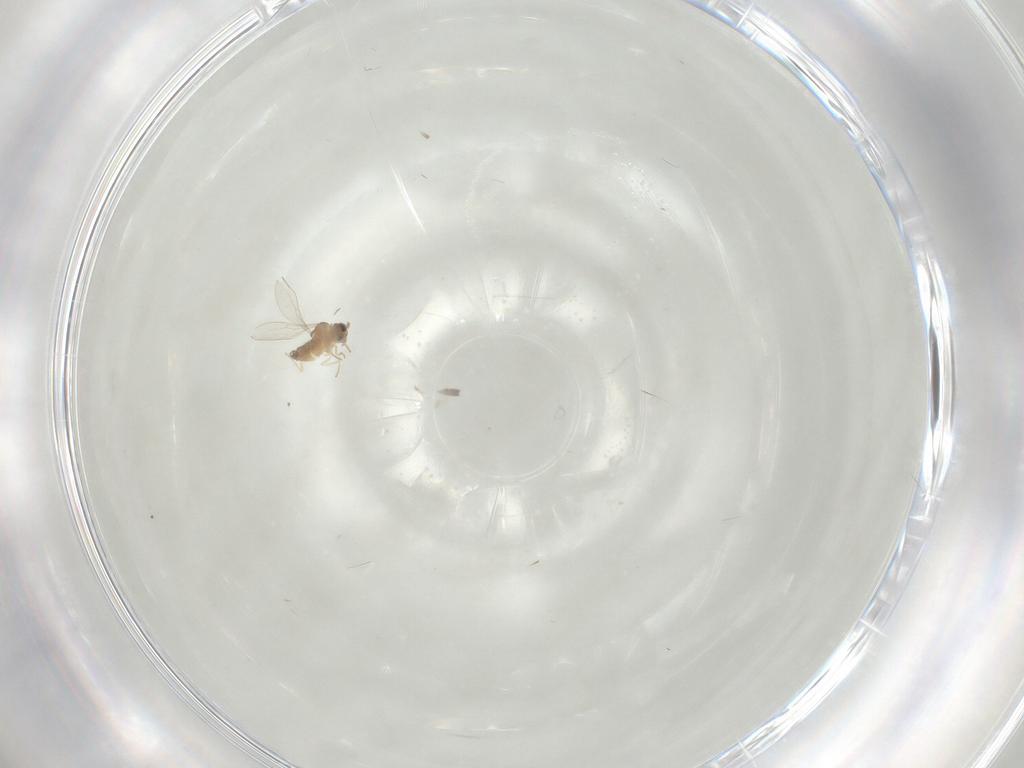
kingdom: Animalia
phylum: Arthropoda
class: Insecta
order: Diptera
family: Cecidomyiidae
